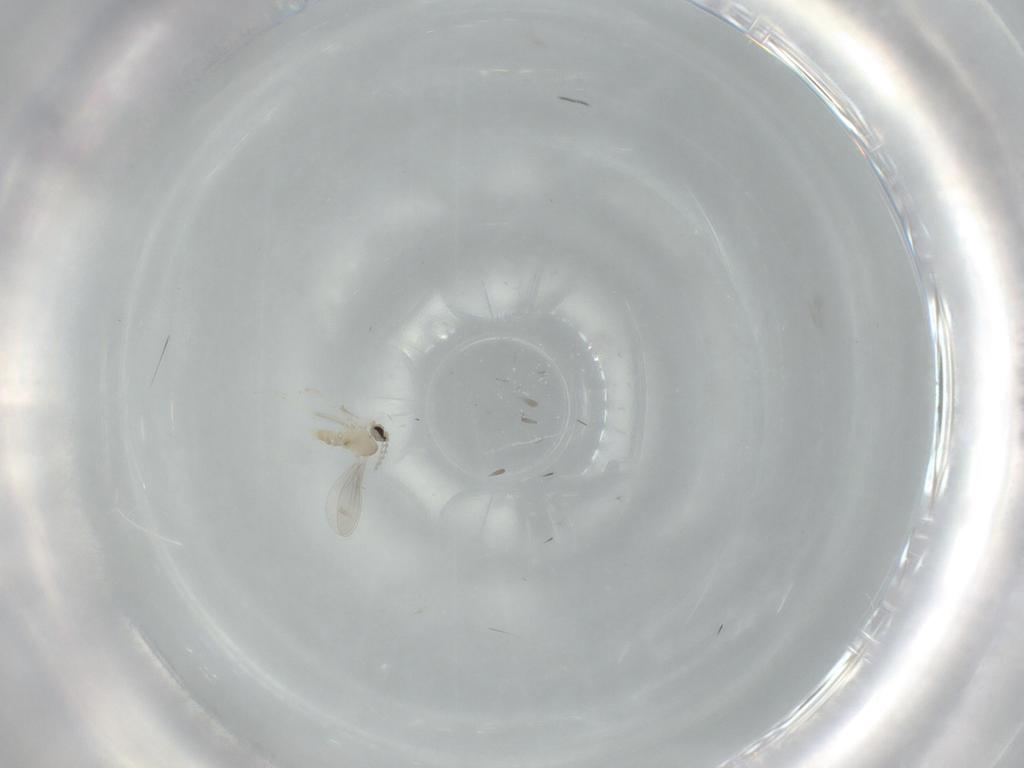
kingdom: Animalia
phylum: Arthropoda
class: Insecta
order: Diptera
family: Cecidomyiidae
